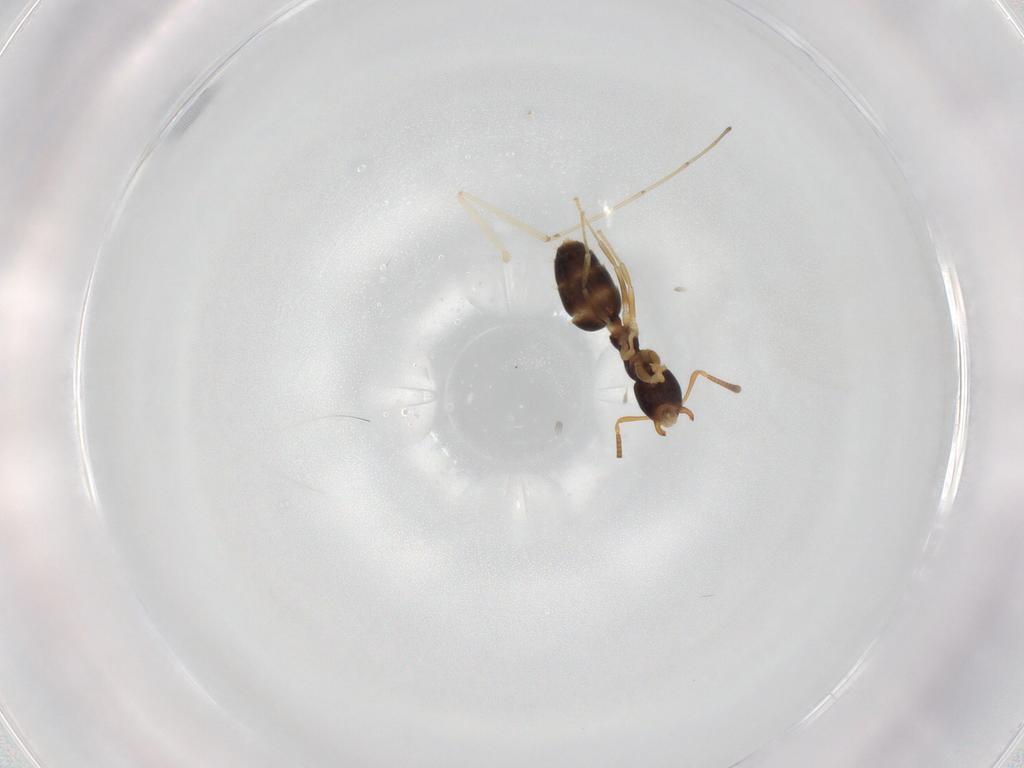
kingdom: Animalia
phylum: Arthropoda
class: Insecta
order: Hymenoptera
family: Formicidae
